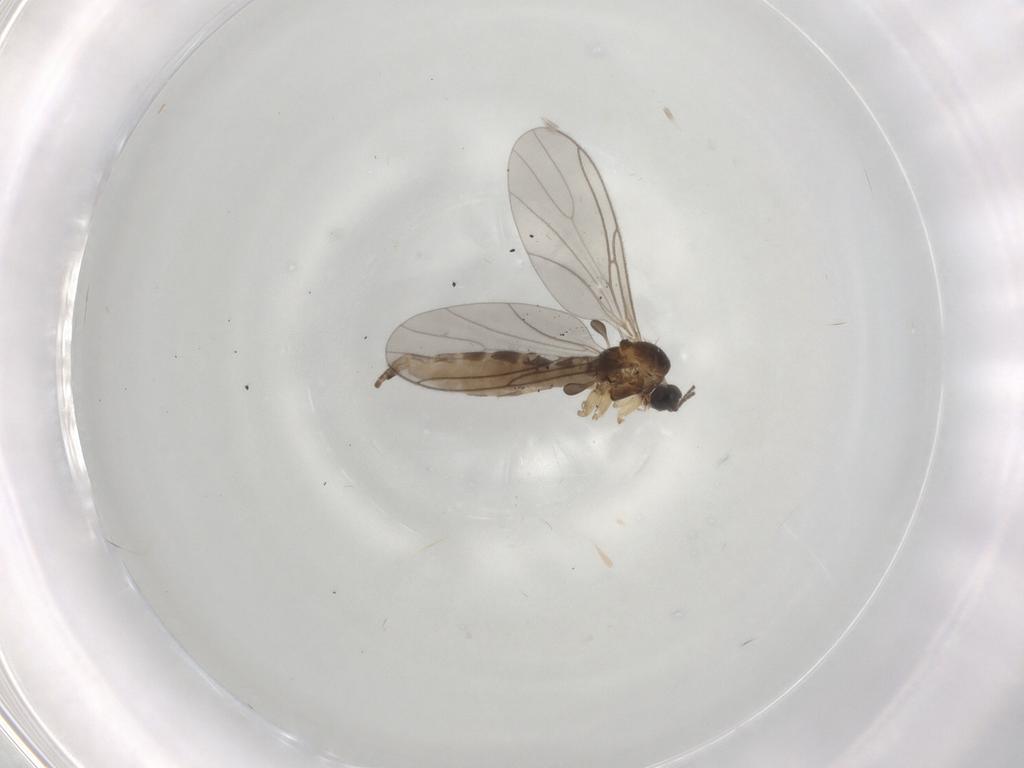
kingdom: Animalia
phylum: Arthropoda
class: Insecta
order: Diptera
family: Sciaridae
